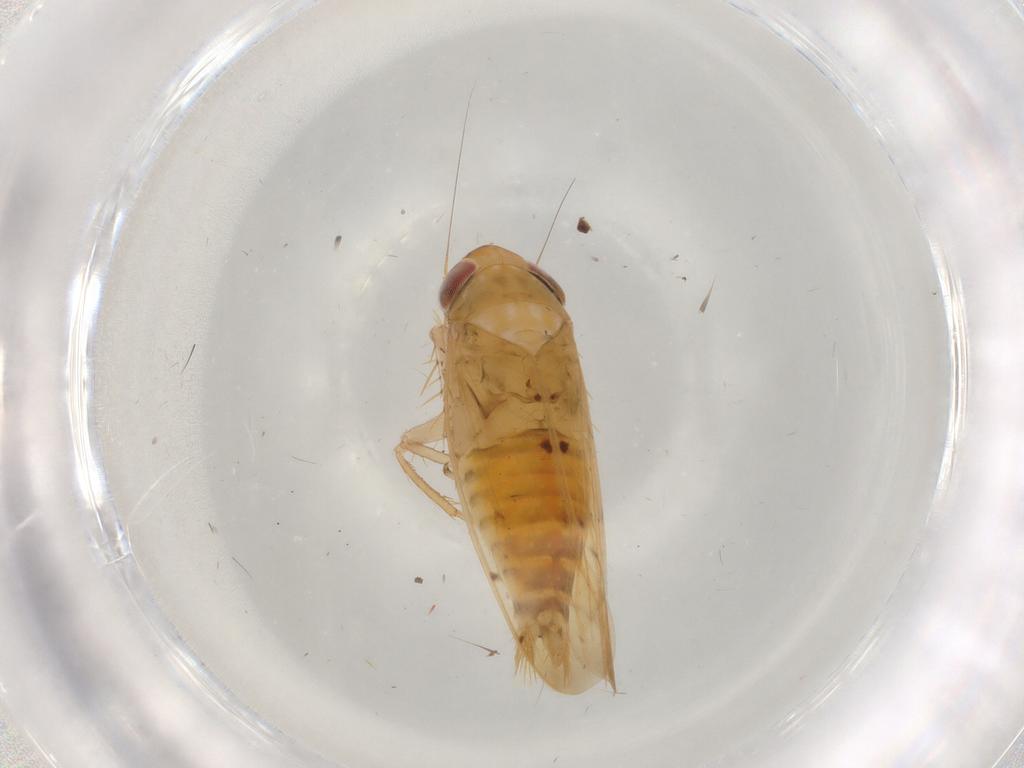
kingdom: Animalia
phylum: Arthropoda
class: Insecta
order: Hemiptera
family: Cicadellidae
